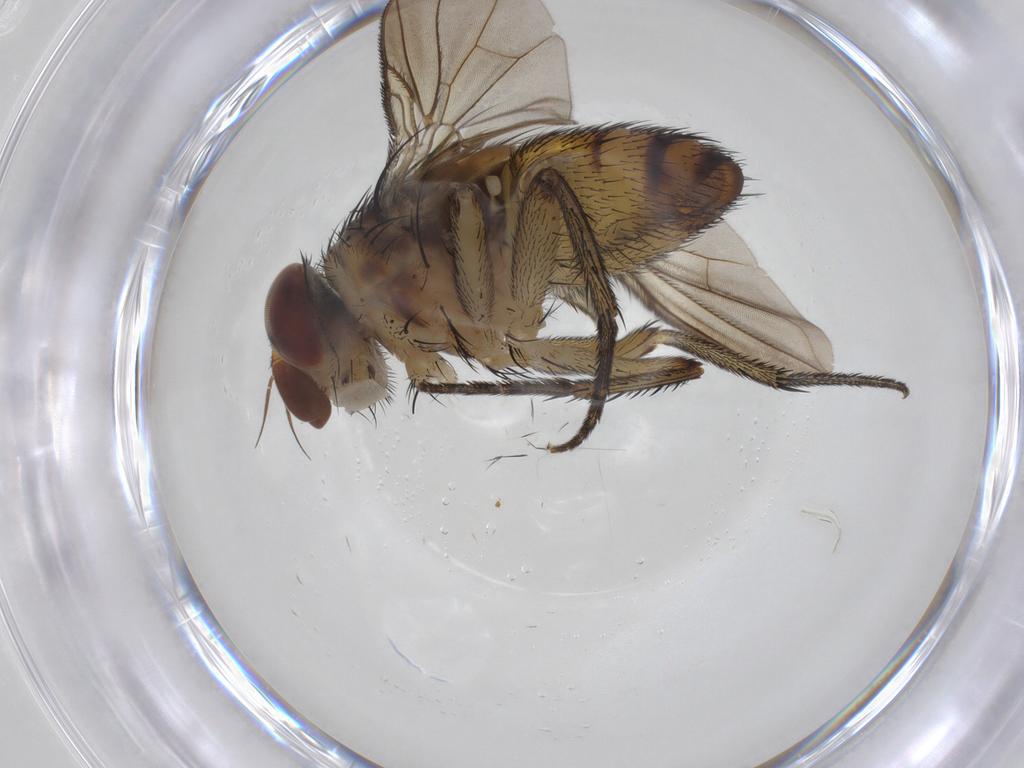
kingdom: Animalia
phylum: Arthropoda
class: Insecta
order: Diptera
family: Tachinidae
